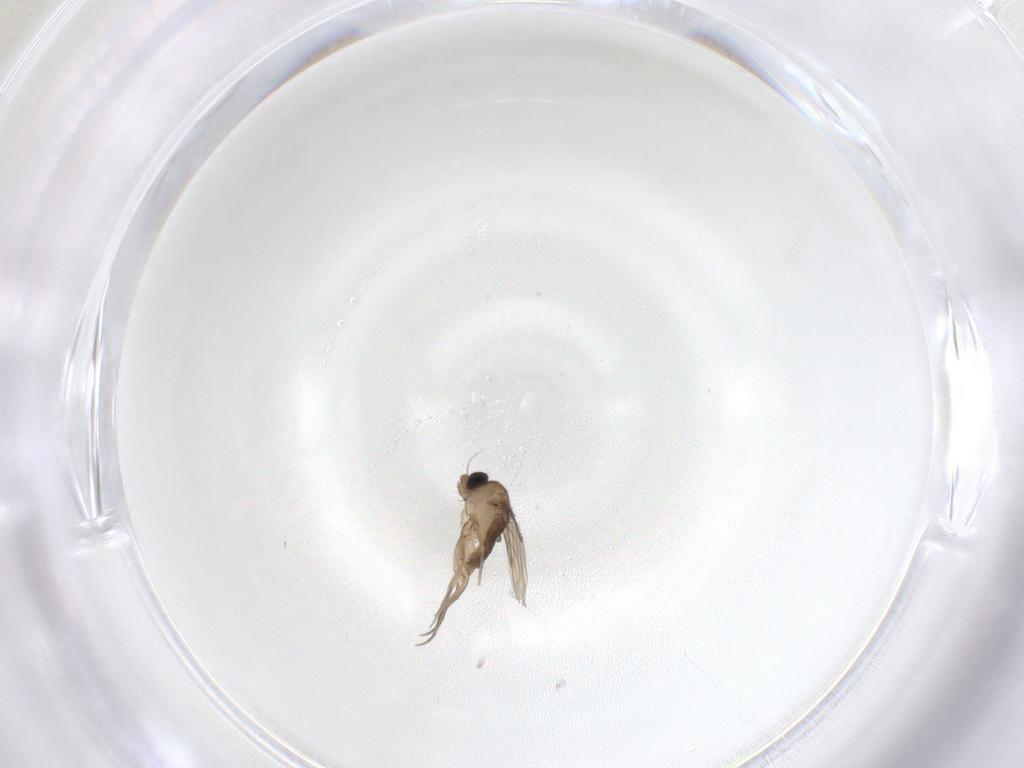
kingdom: Animalia
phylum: Arthropoda
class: Insecta
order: Diptera
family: Phoridae
